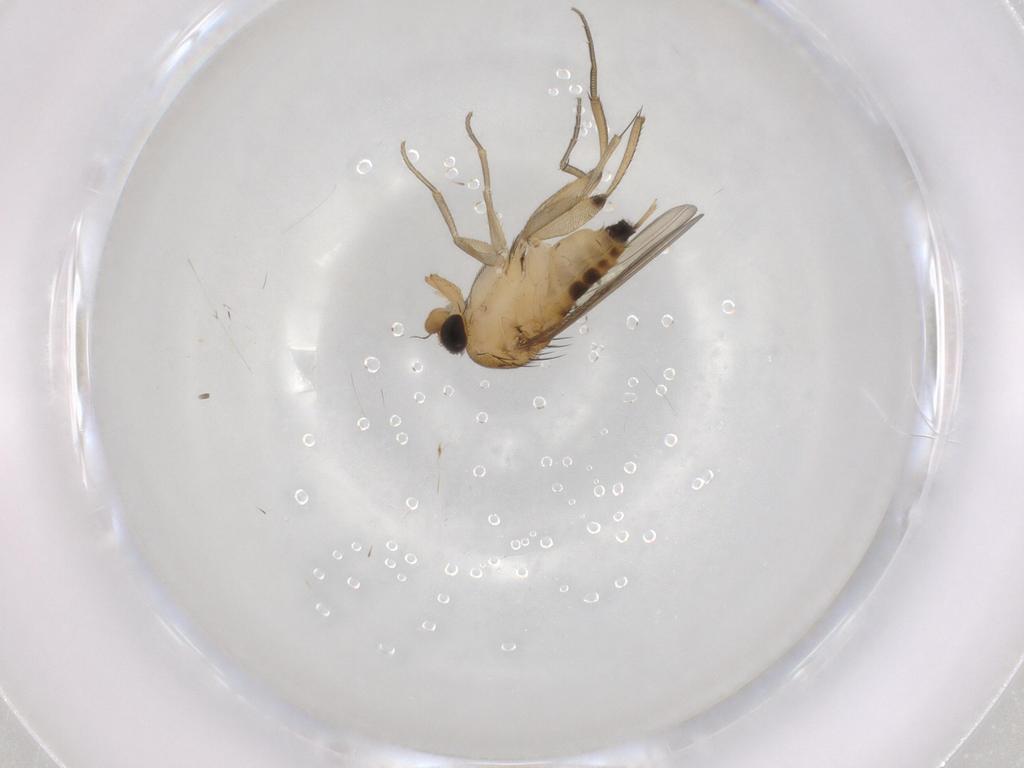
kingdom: Animalia
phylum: Arthropoda
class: Insecta
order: Diptera
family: Phoridae
